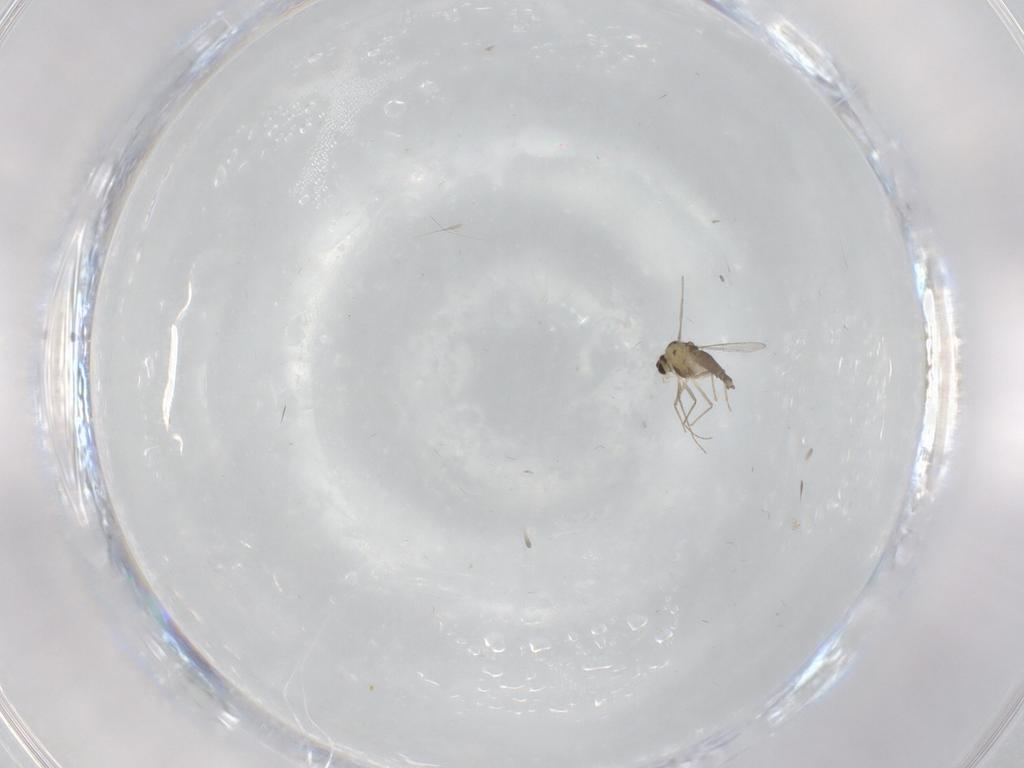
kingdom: Animalia
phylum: Arthropoda
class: Insecta
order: Diptera
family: Chironomidae
